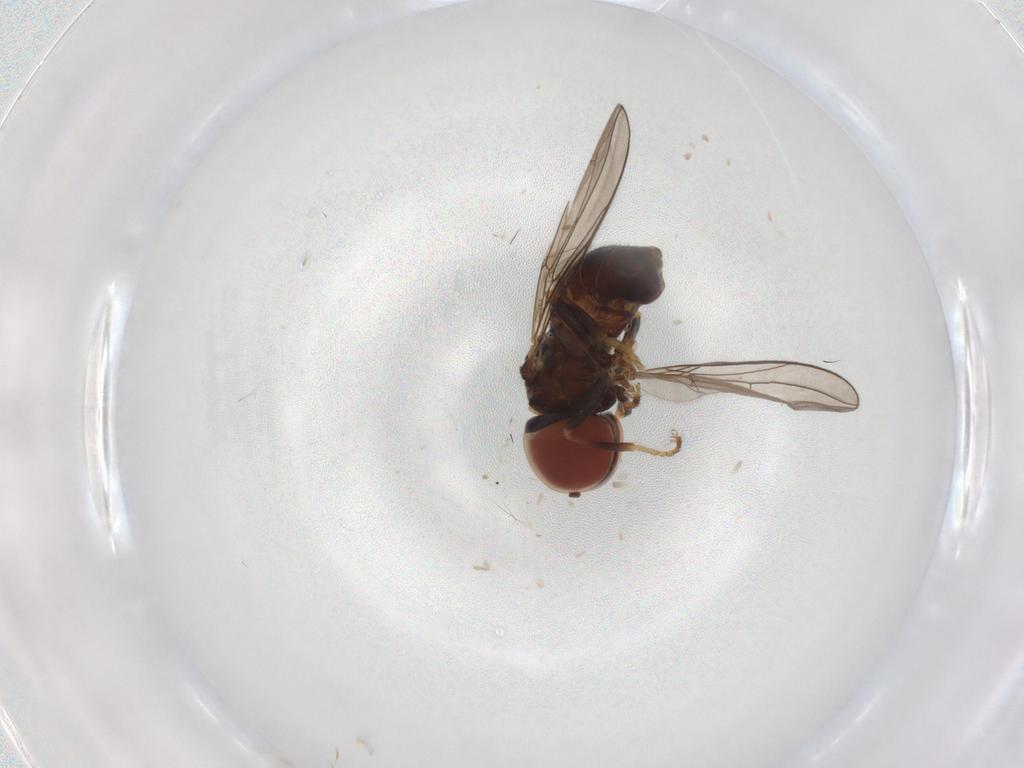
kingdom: Animalia
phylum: Arthropoda
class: Insecta
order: Diptera
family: Pipunculidae
